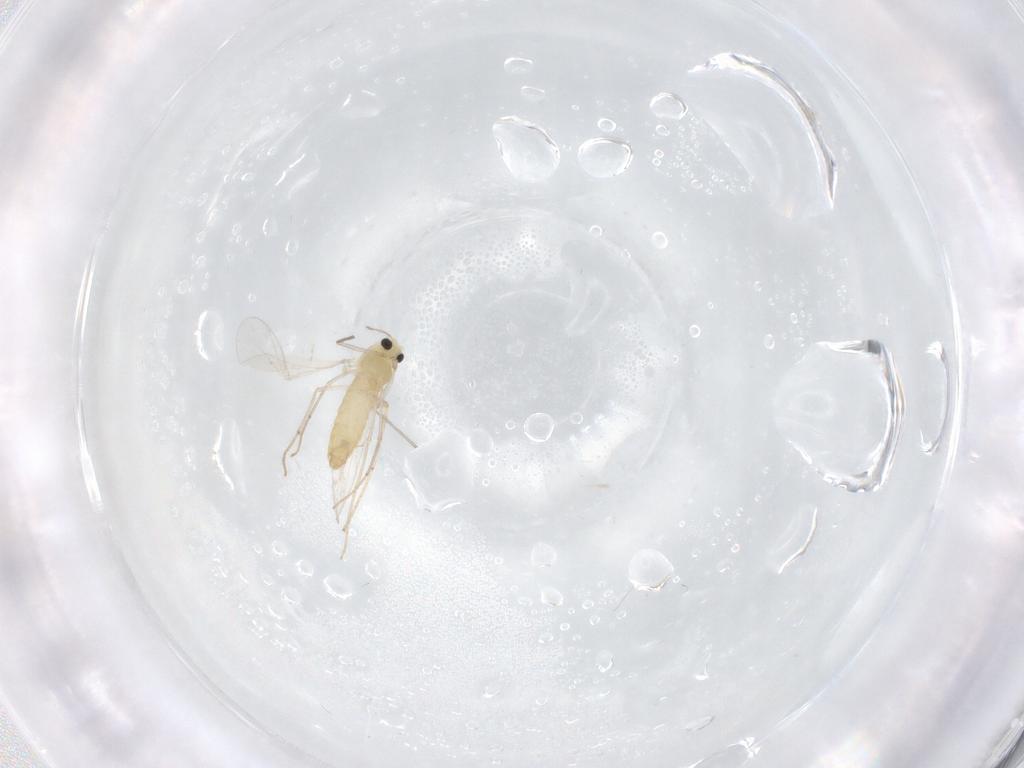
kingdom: Animalia
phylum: Arthropoda
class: Insecta
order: Diptera
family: Chironomidae
